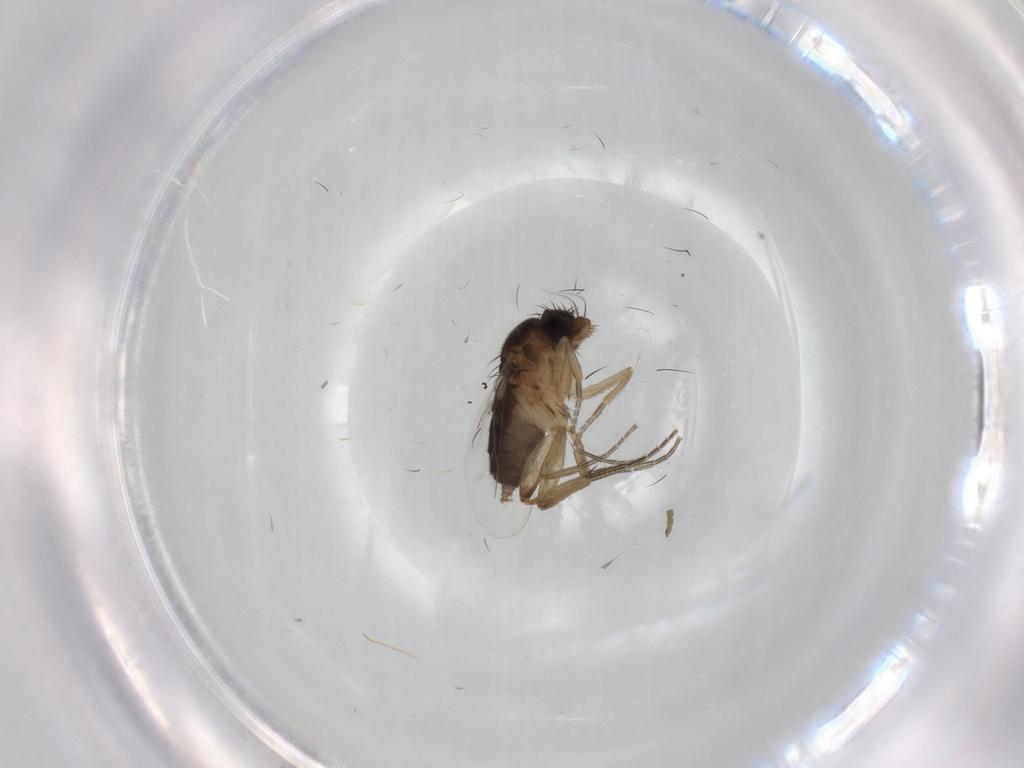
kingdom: Animalia
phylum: Arthropoda
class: Insecta
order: Diptera
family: Phoridae
